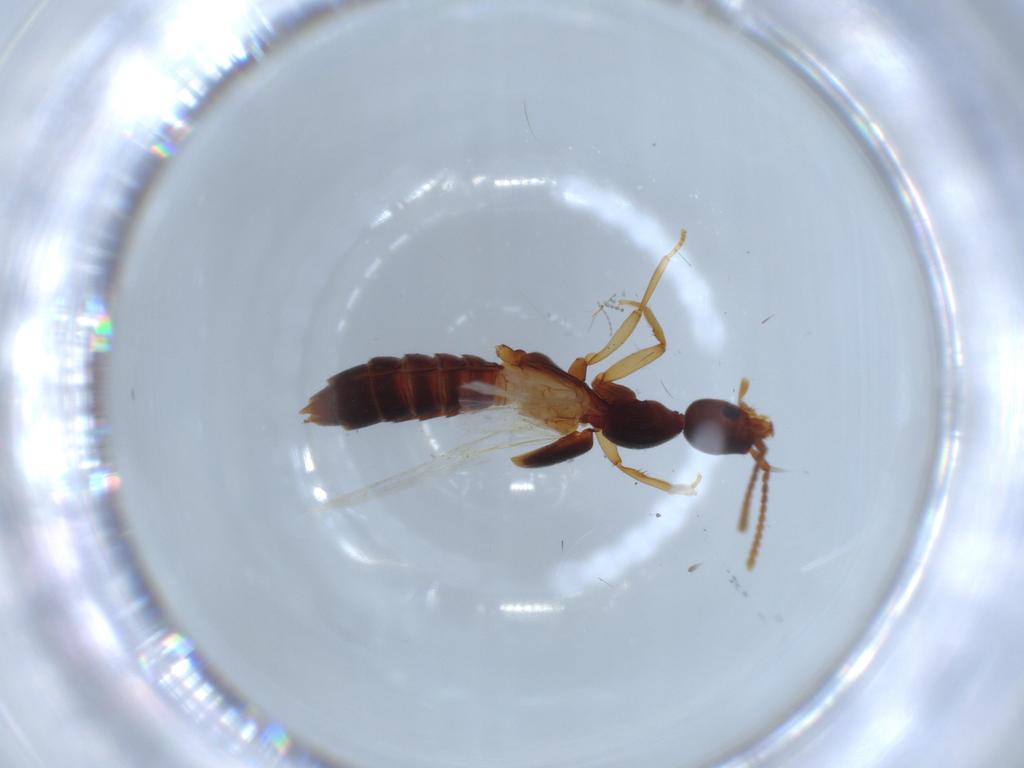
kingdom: Animalia
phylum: Arthropoda
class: Insecta
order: Coleoptera
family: Staphylinidae
